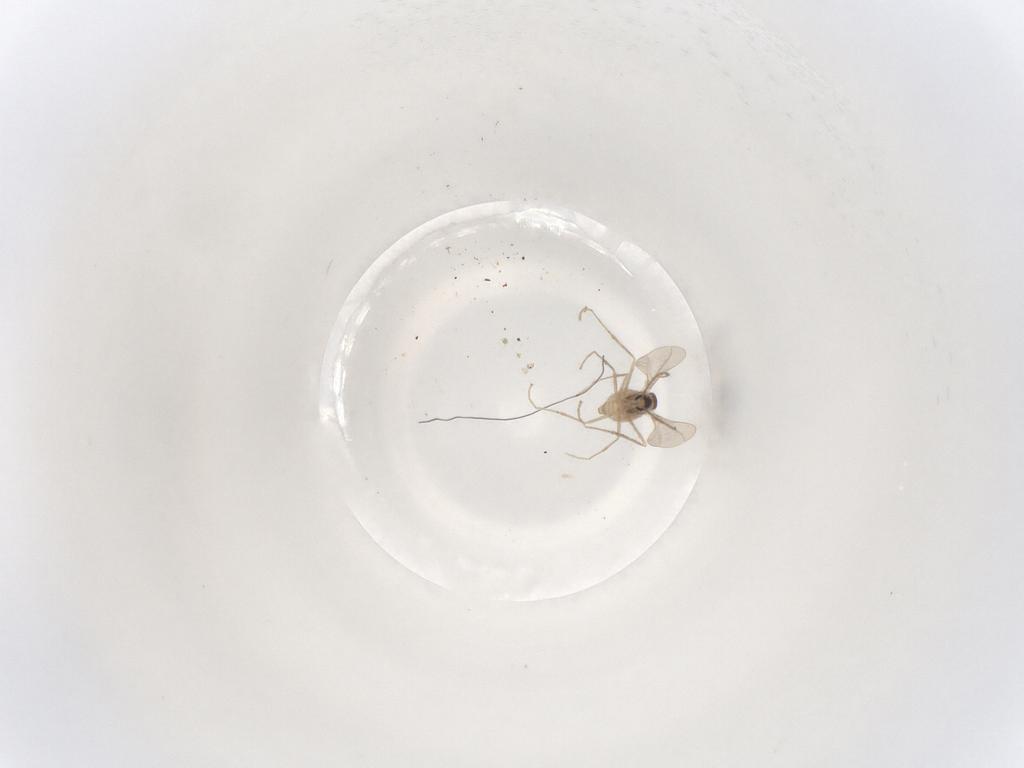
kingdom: Animalia
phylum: Arthropoda
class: Insecta
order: Diptera
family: Cecidomyiidae
